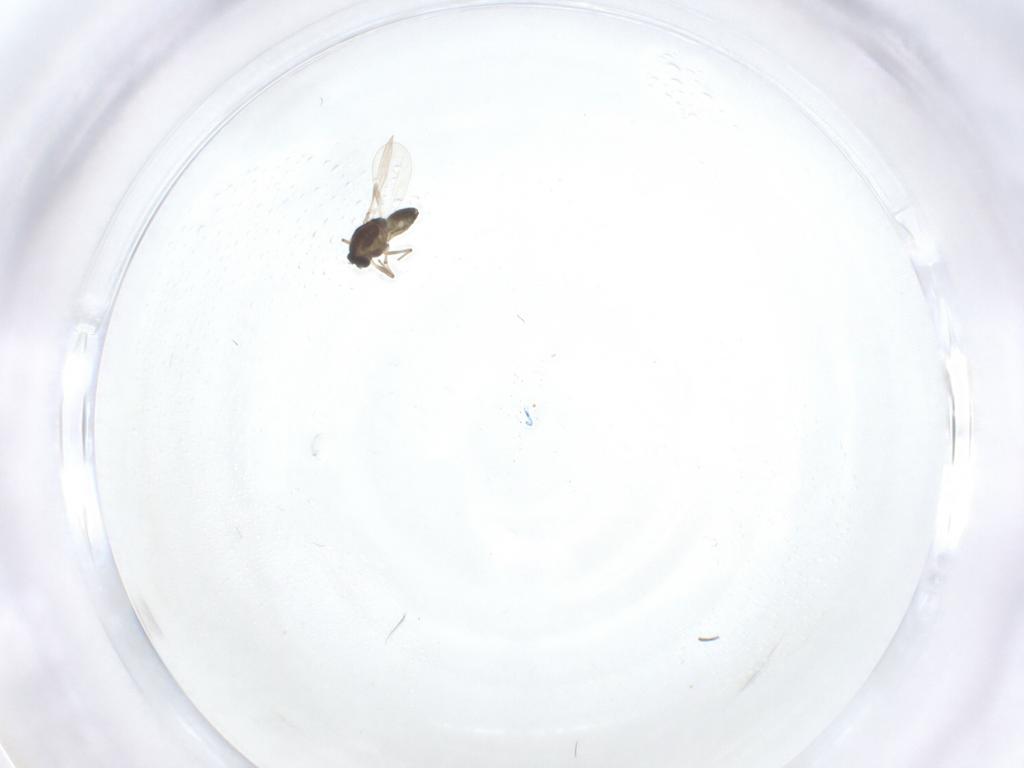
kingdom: Animalia
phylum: Arthropoda
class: Insecta
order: Diptera
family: Chironomidae
